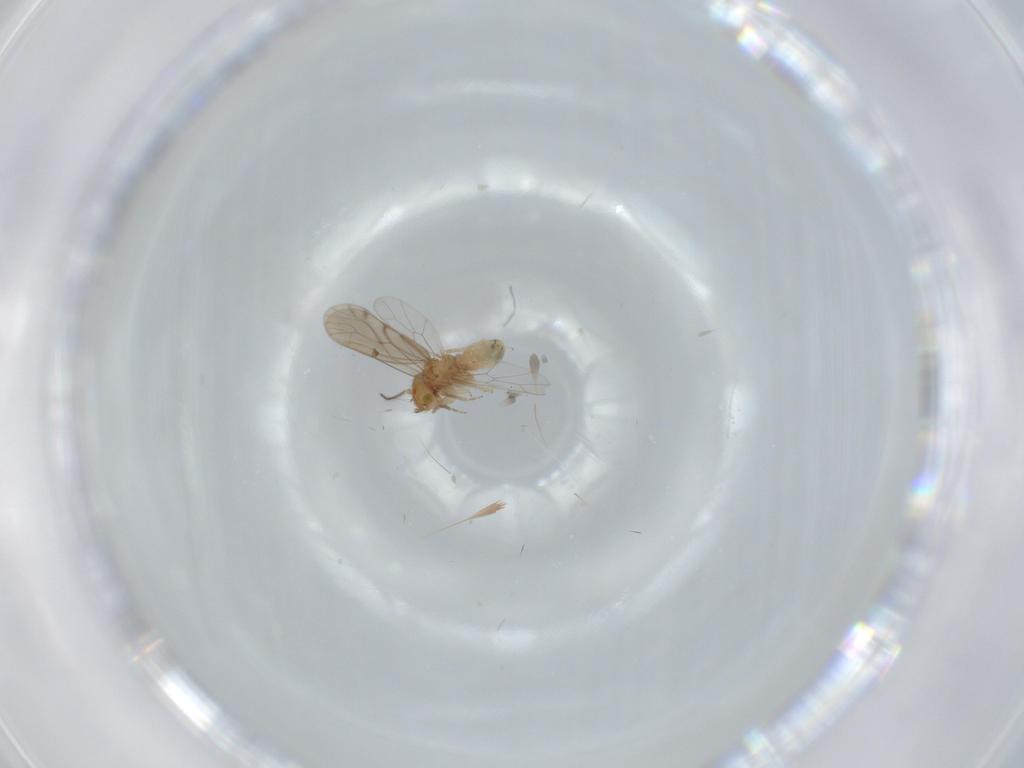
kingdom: Animalia
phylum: Arthropoda
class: Insecta
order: Psocodea
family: Ectopsocidae
